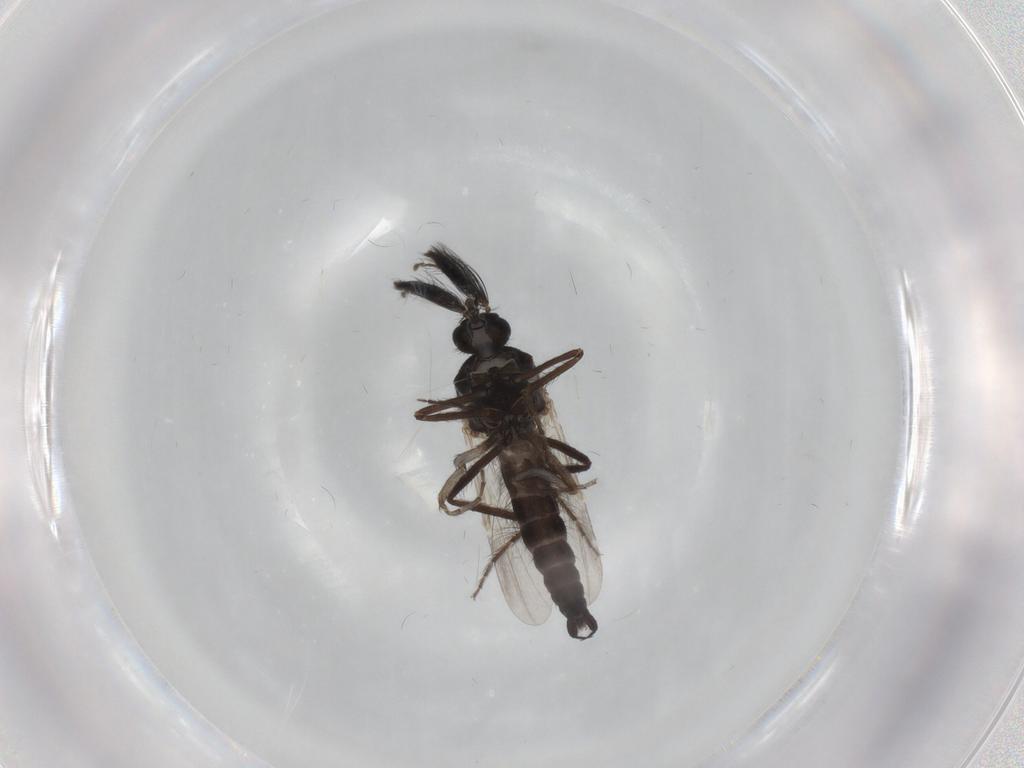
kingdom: Animalia
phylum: Arthropoda
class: Insecta
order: Diptera
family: Ceratopogonidae
